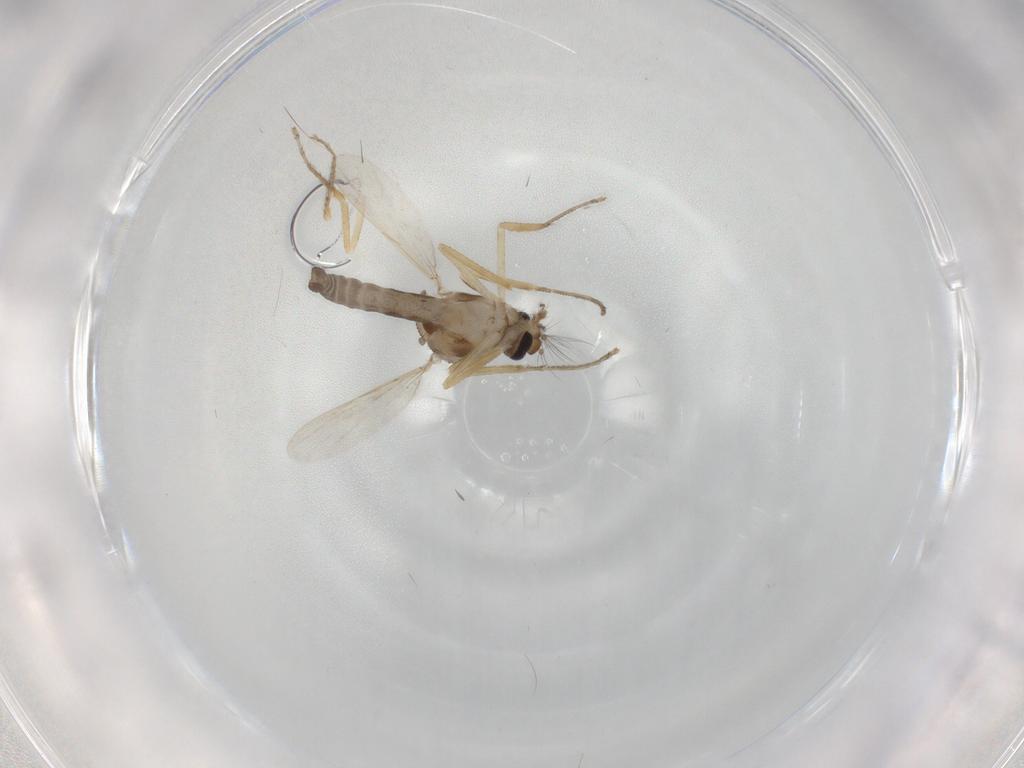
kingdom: Animalia
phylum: Arthropoda
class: Insecta
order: Diptera
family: Ceratopogonidae
